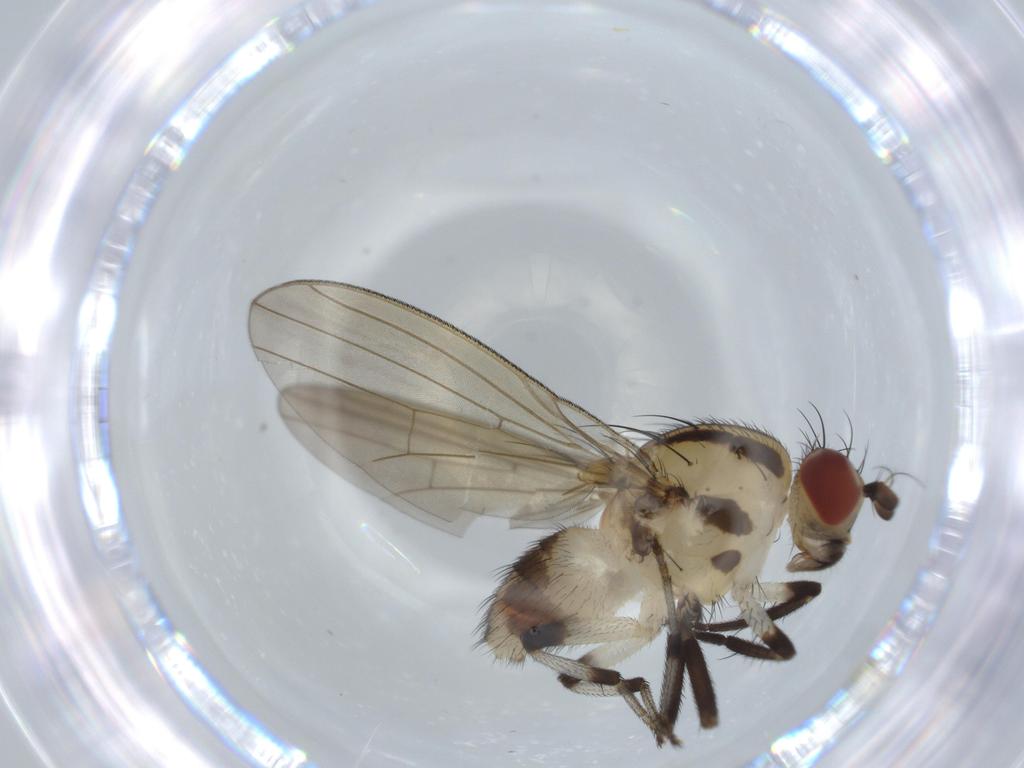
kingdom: Animalia
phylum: Arthropoda
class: Insecta
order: Diptera
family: Lauxaniidae
